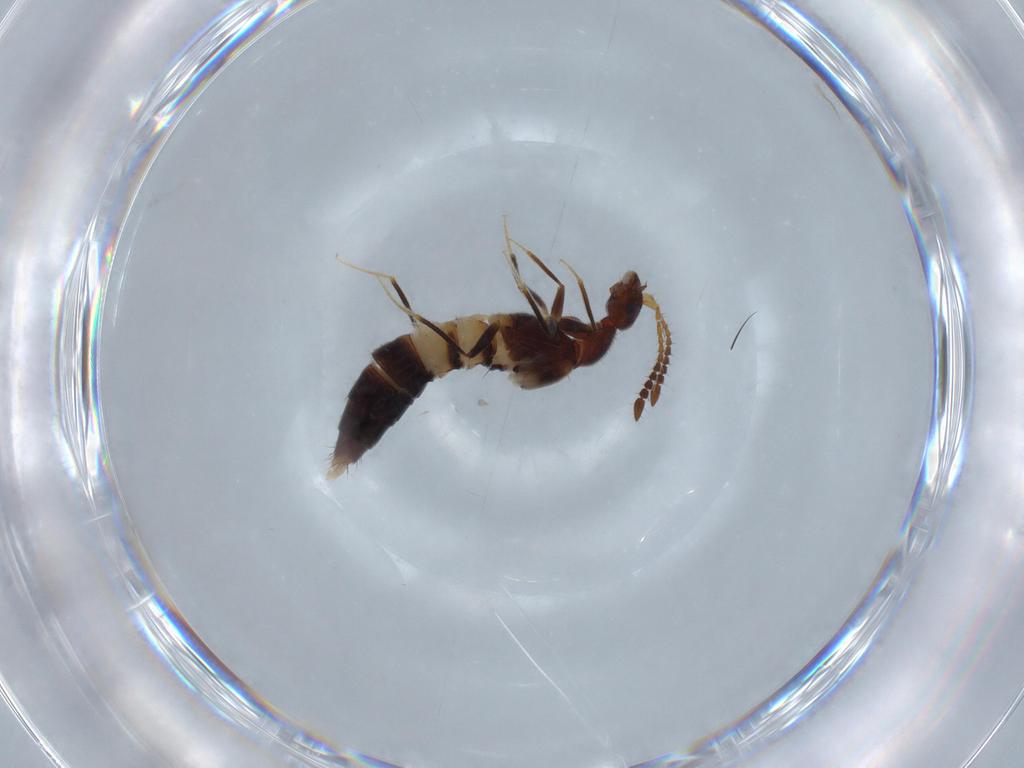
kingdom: Animalia
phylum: Arthropoda
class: Insecta
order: Coleoptera
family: Staphylinidae
